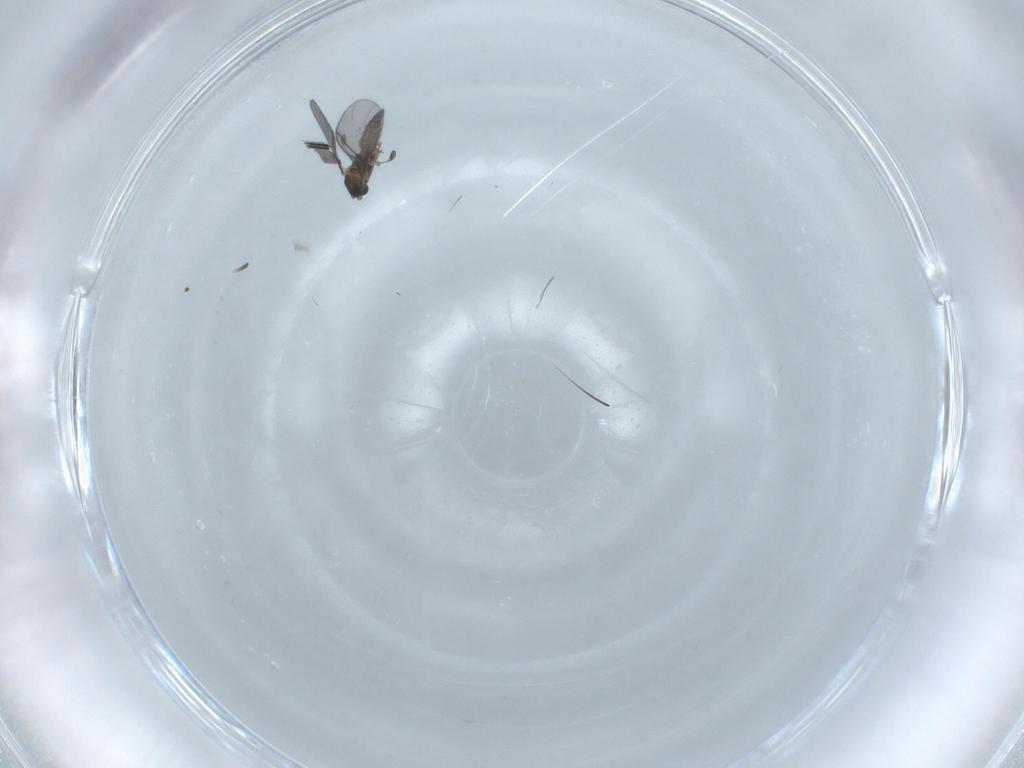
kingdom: Animalia
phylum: Arthropoda
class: Insecta
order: Diptera
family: Sciaridae
